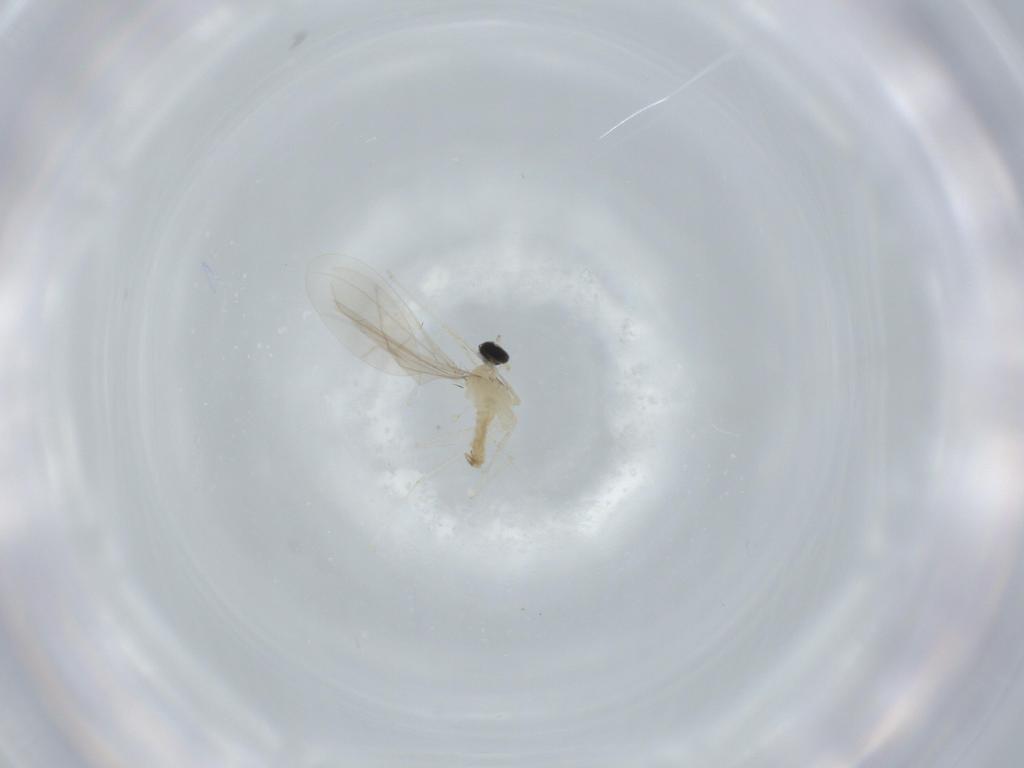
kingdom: Animalia
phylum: Arthropoda
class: Insecta
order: Diptera
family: Cecidomyiidae
